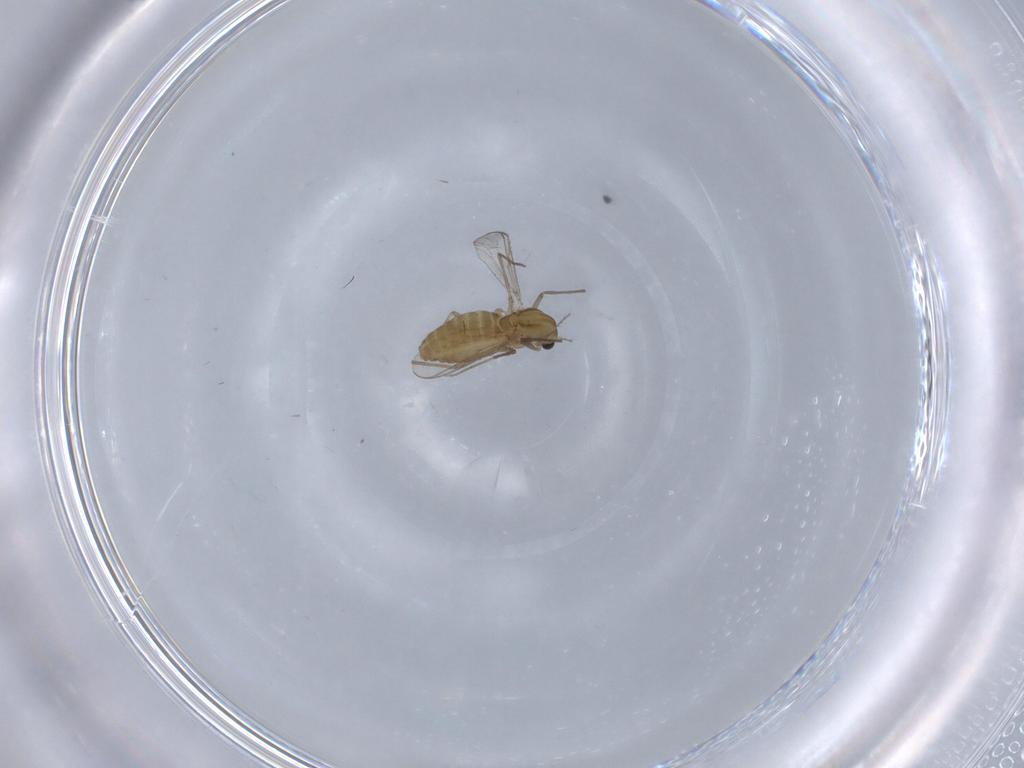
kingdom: Animalia
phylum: Arthropoda
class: Insecta
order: Diptera
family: Chironomidae
